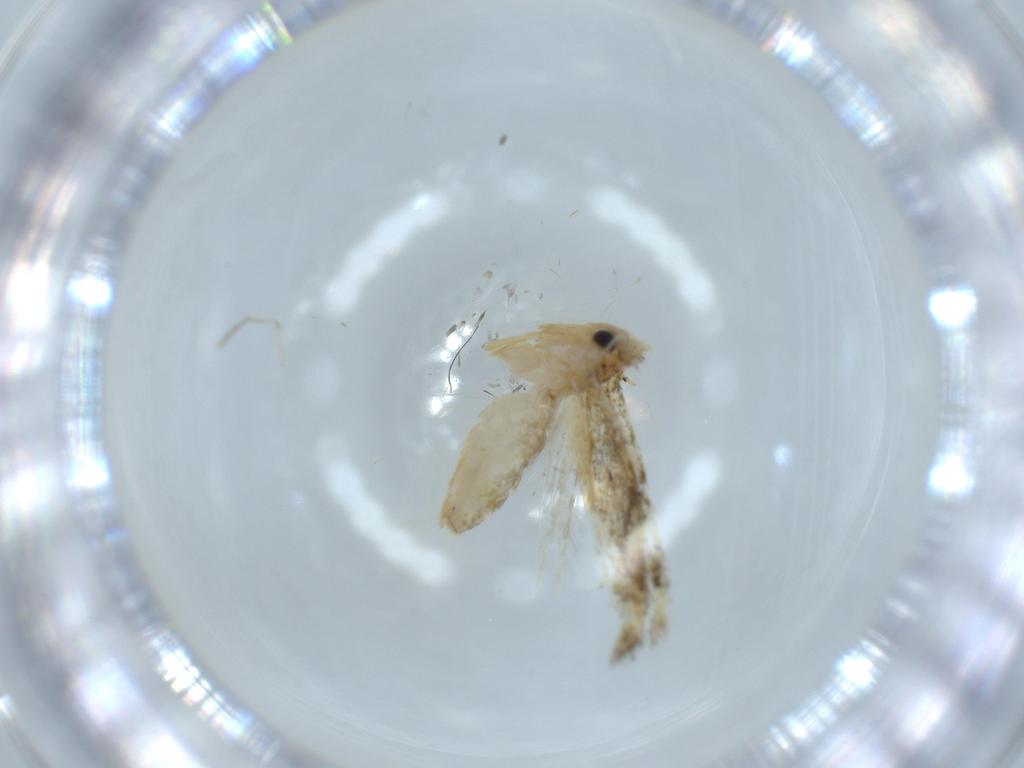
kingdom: Animalia
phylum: Arthropoda
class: Insecta
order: Lepidoptera
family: Bucculatricidae
